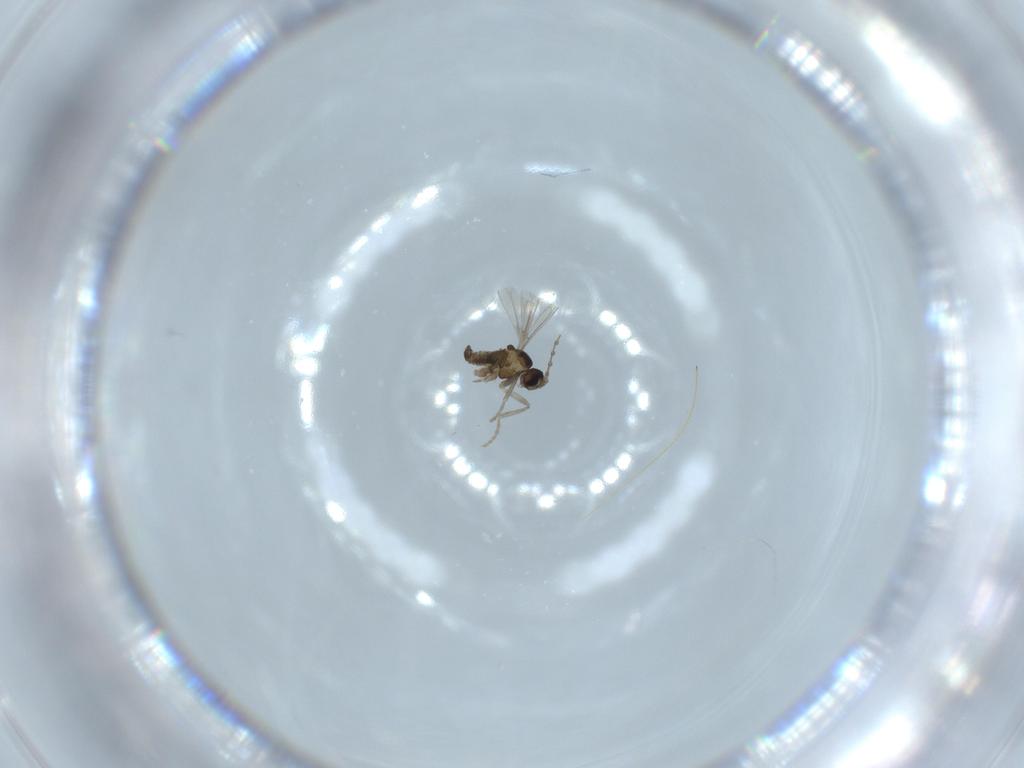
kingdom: Animalia
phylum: Arthropoda
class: Insecta
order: Diptera
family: Cecidomyiidae
